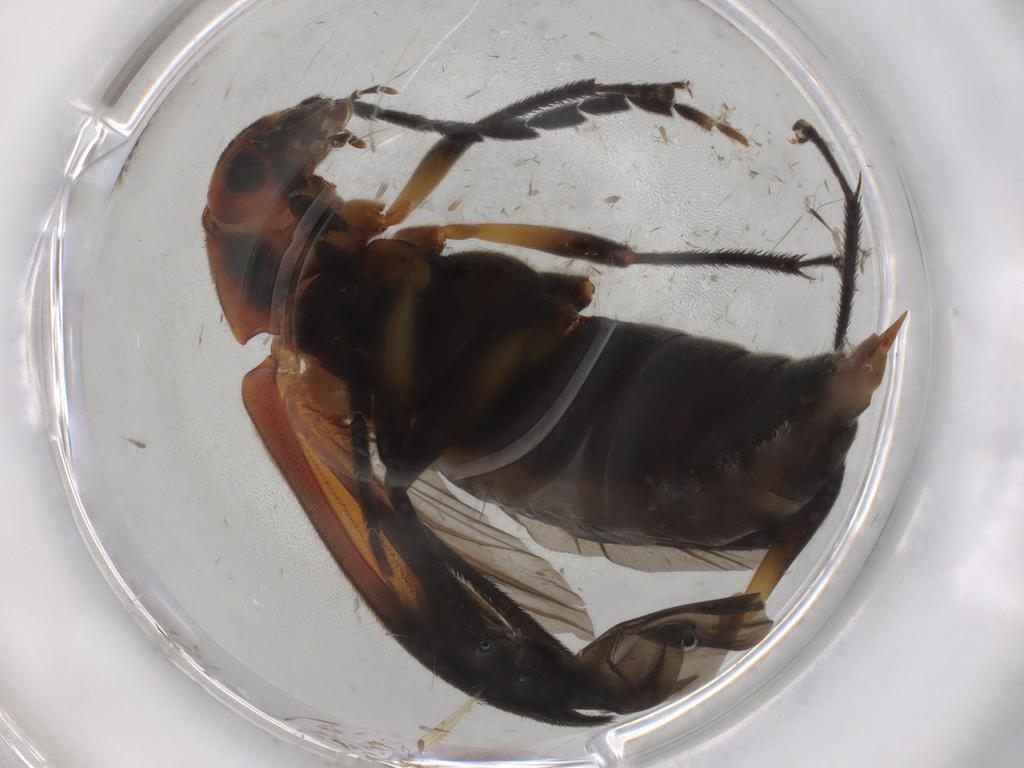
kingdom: Animalia
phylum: Arthropoda
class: Insecta
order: Coleoptera
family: Ptilodactylidae
